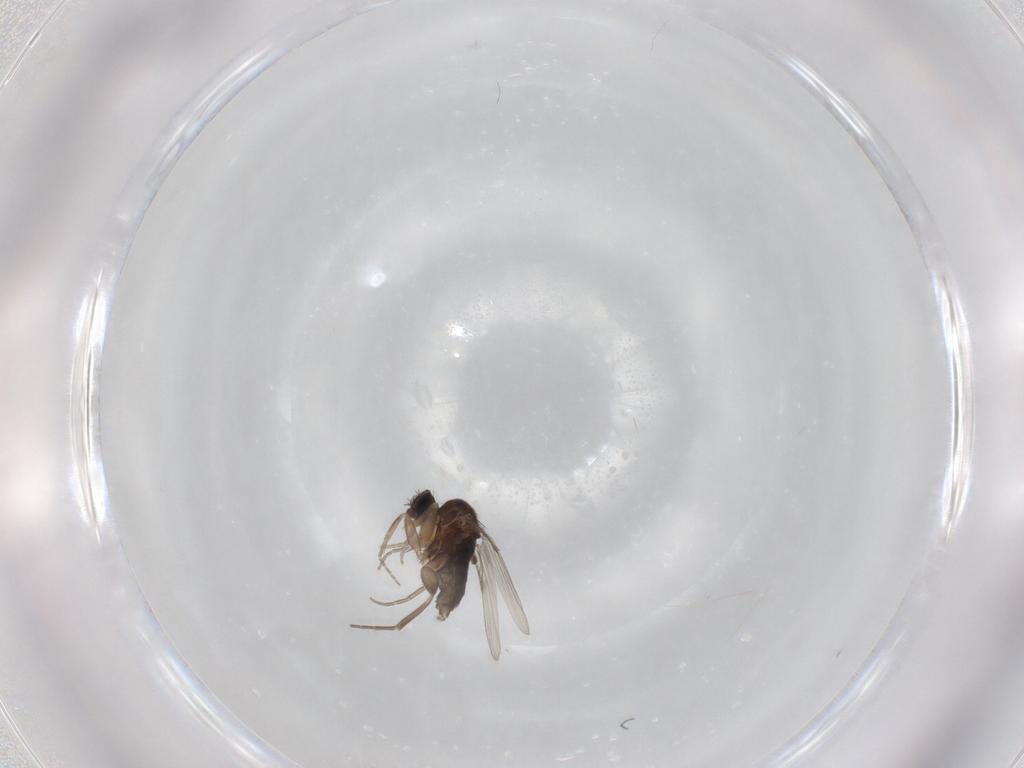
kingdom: Animalia
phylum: Arthropoda
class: Insecta
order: Diptera
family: Phoridae
